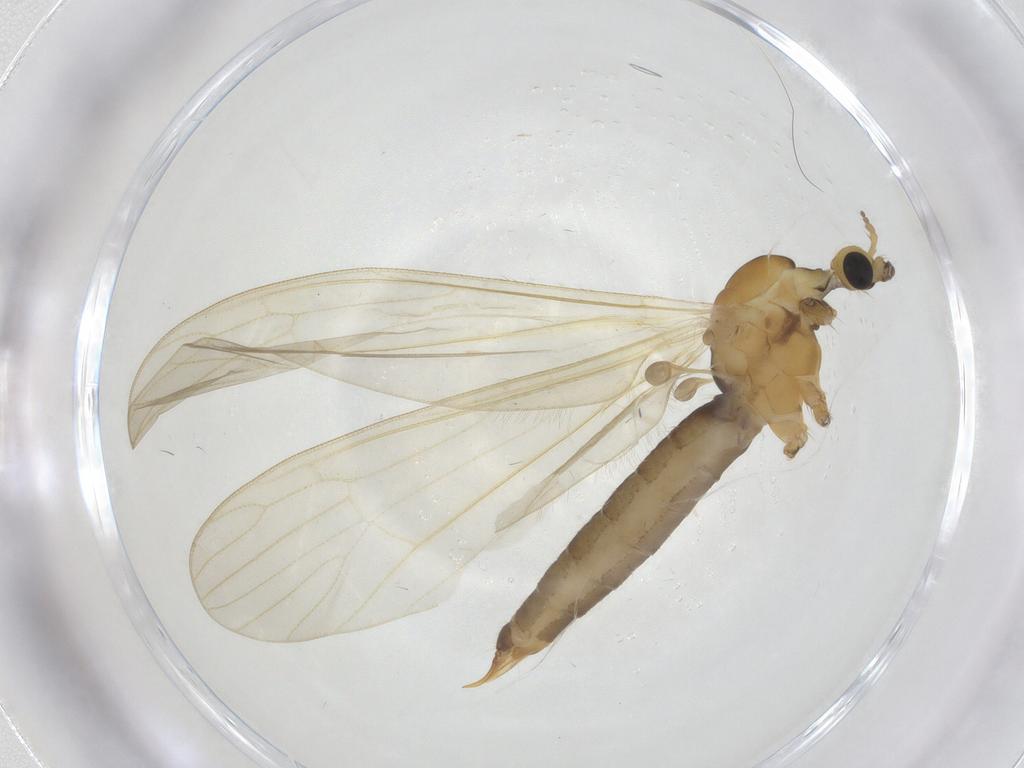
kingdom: Animalia
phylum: Arthropoda
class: Insecta
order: Diptera
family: Limoniidae
